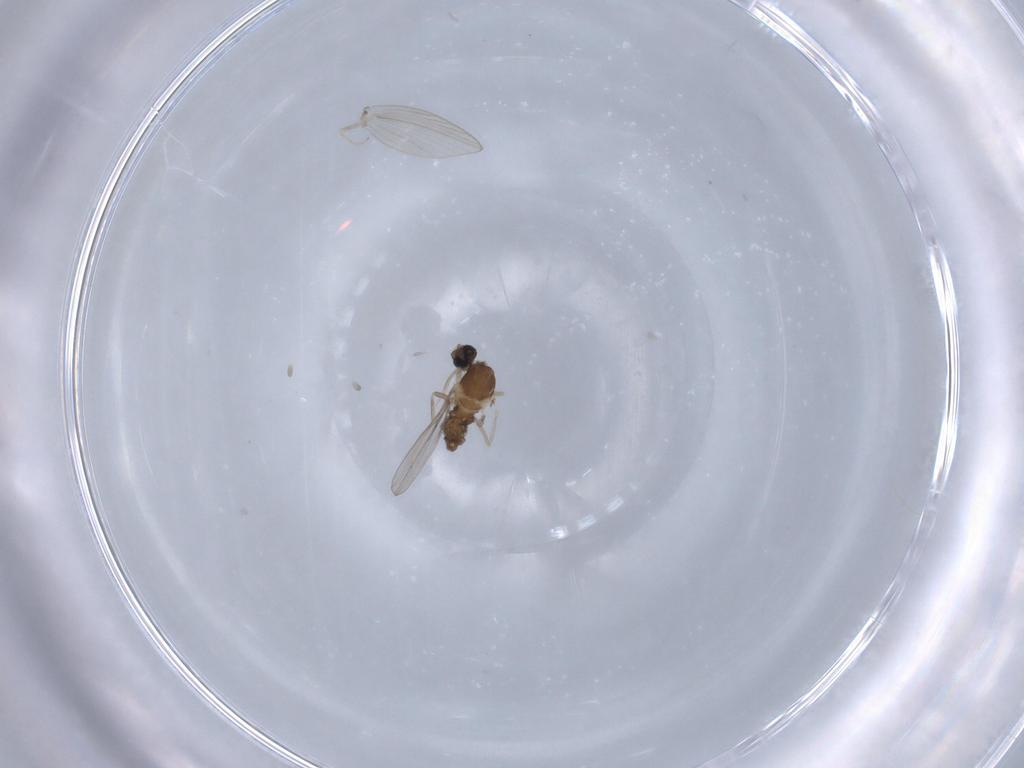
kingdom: Animalia
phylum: Arthropoda
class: Insecta
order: Diptera
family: Cecidomyiidae
